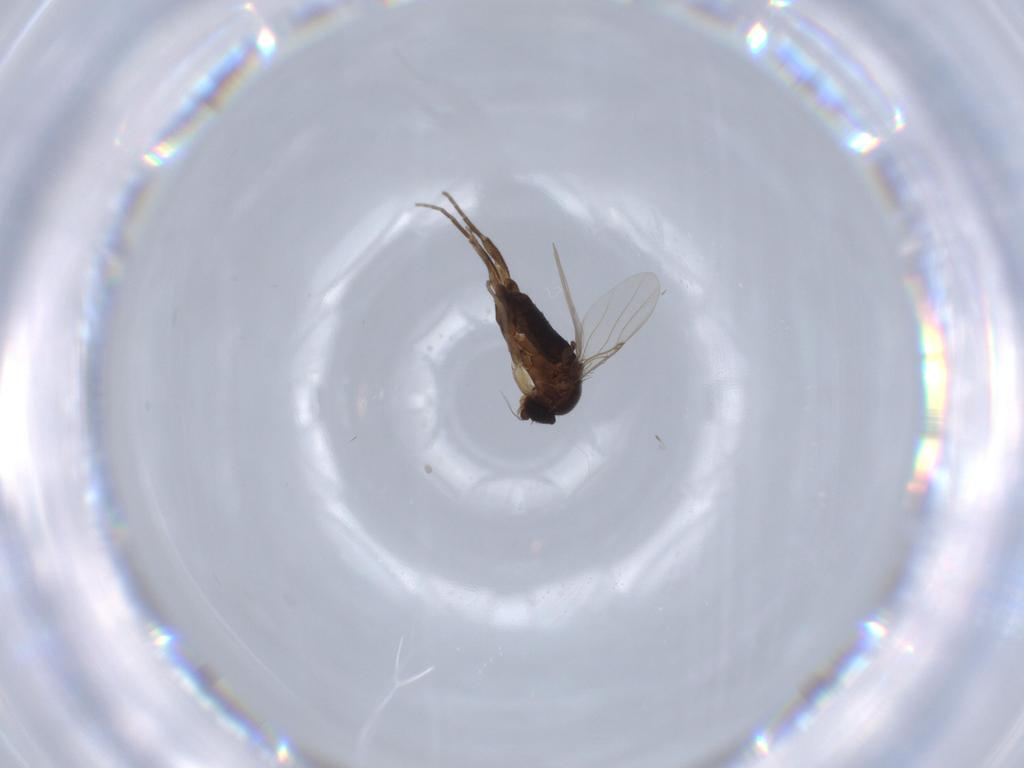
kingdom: Animalia
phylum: Arthropoda
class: Insecta
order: Diptera
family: Phoridae
